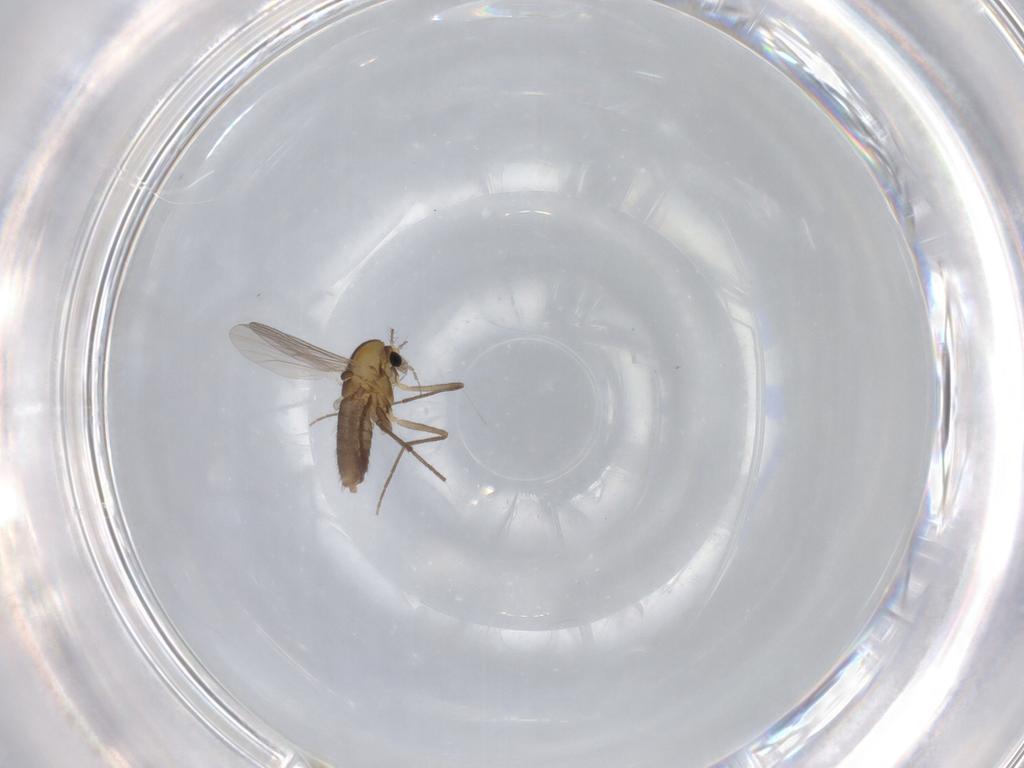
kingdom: Animalia
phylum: Arthropoda
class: Insecta
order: Diptera
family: Chironomidae
